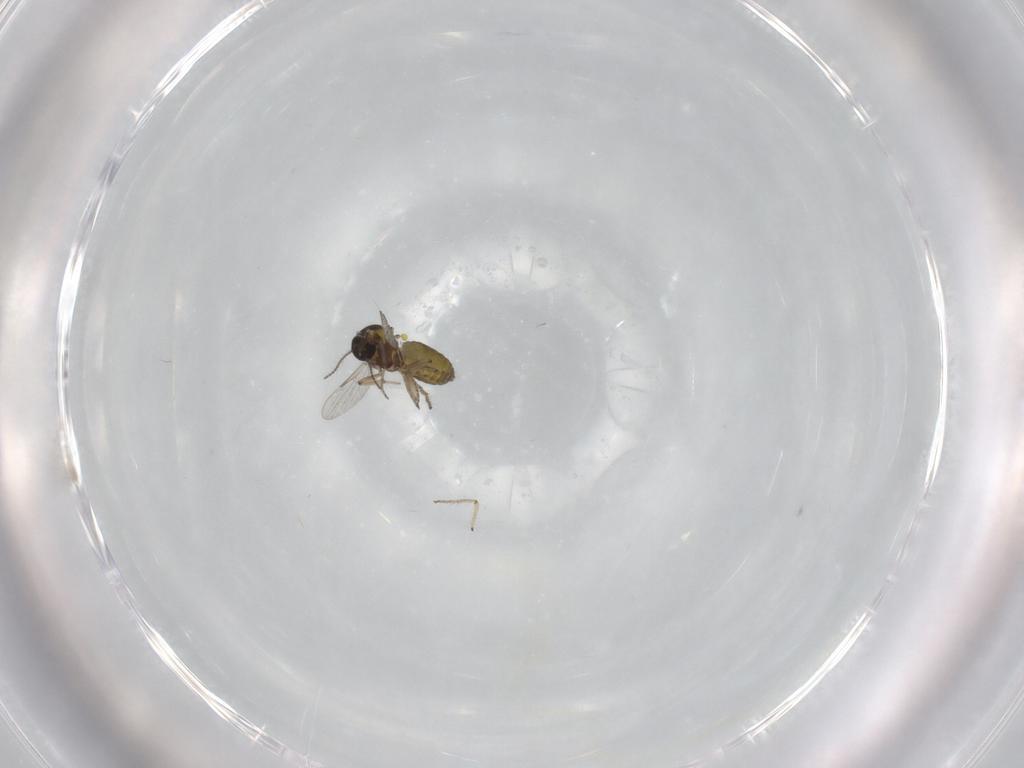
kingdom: Animalia
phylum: Arthropoda
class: Insecta
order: Diptera
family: Ceratopogonidae
